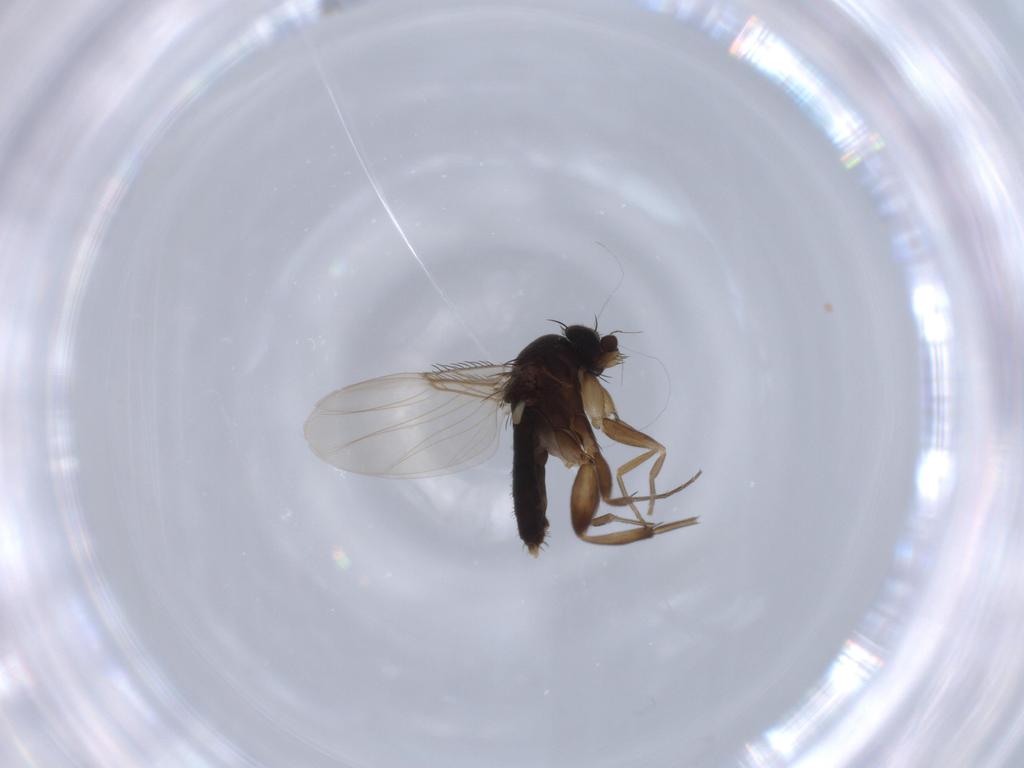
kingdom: Animalia
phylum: Arthropoda
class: Insecta
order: Diptera
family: Phoridae
